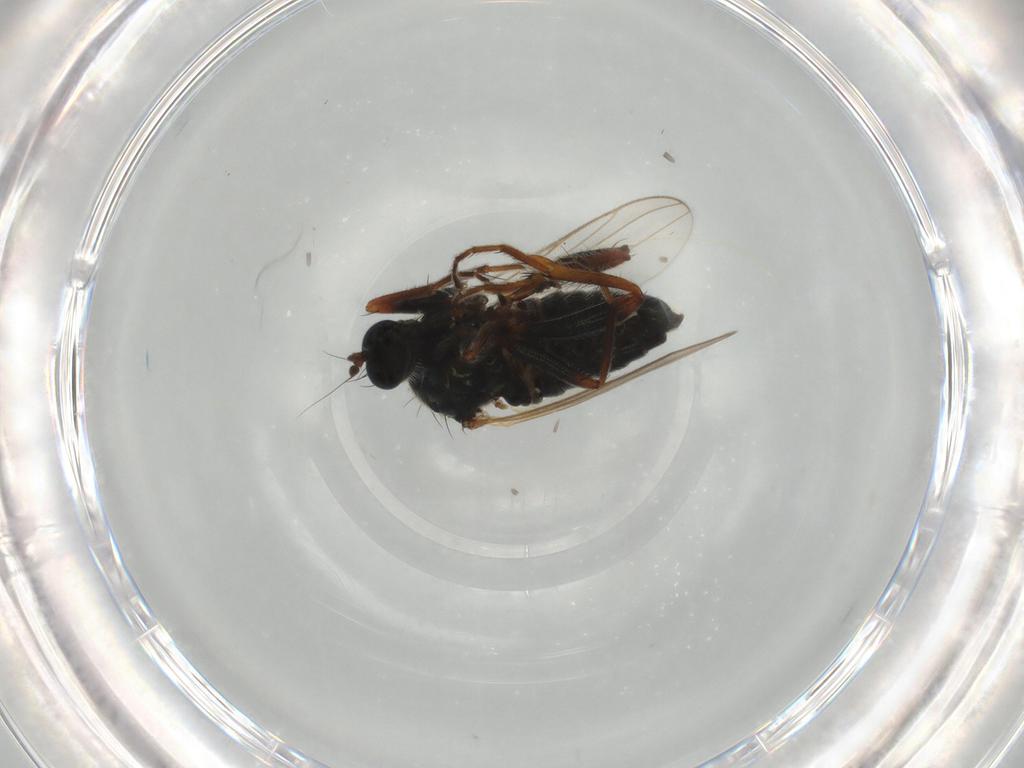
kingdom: Animalia
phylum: Arthropoda
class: Insecta
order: Diptera
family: Hybotidae
